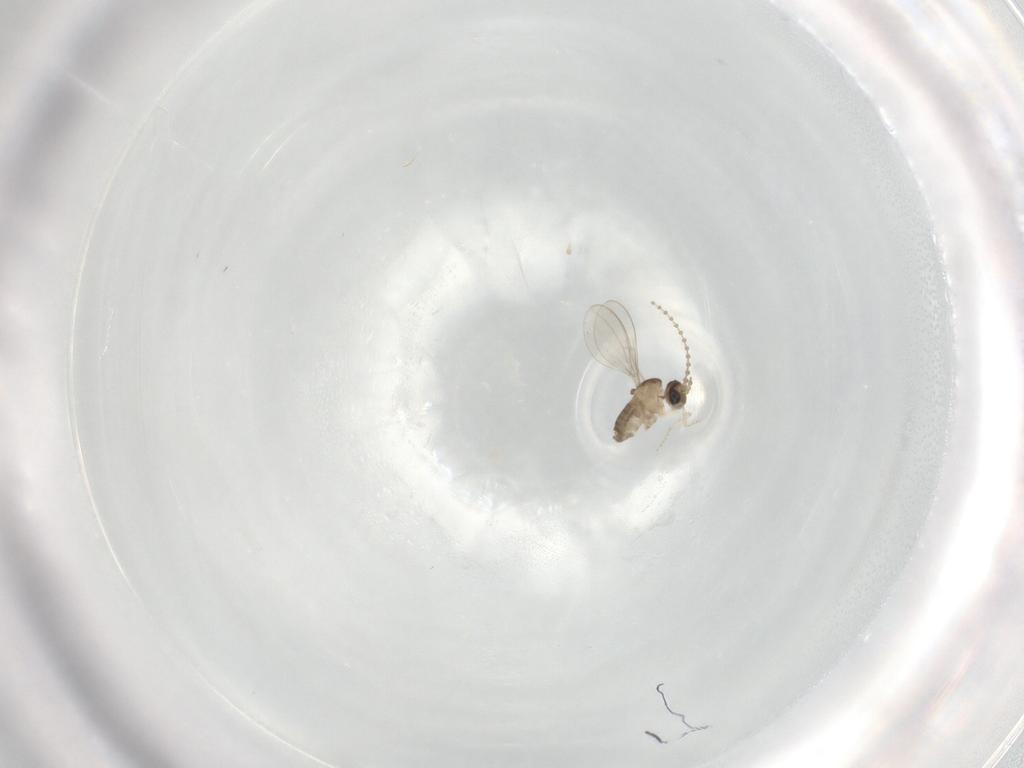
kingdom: Animalia
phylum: Arthropoda
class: Insecta
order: Diptera
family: Cecidomyiidae
